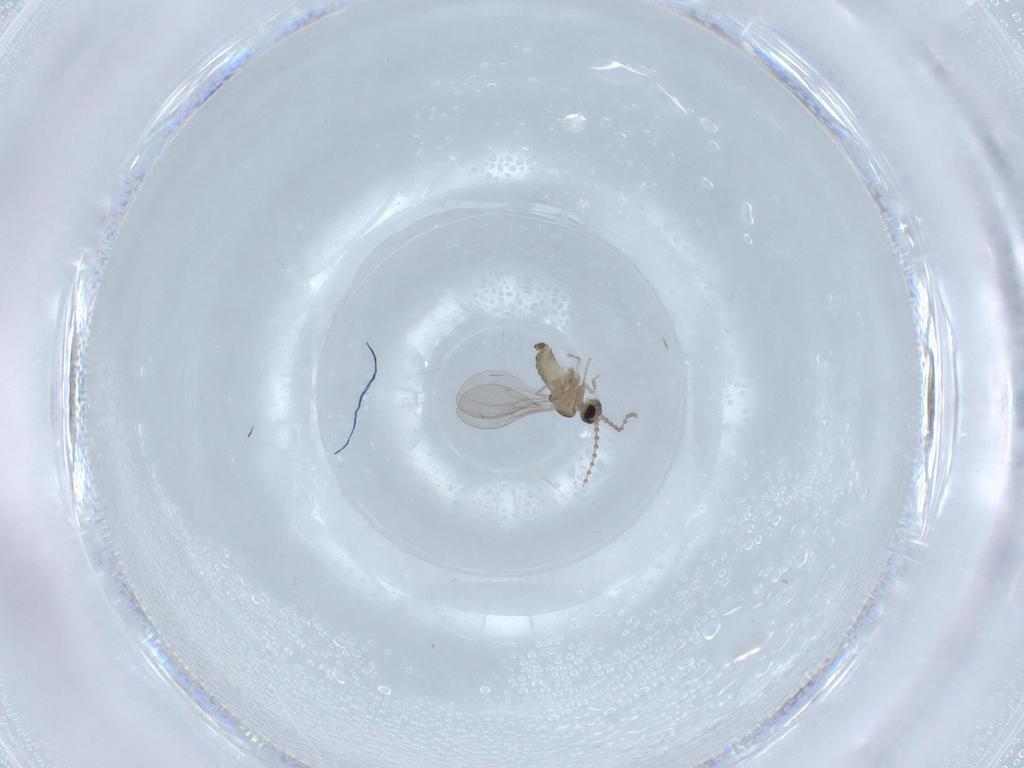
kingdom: Animalia
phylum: Arthropoda
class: Insecta
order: Diptera
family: Cecidomyiidae
